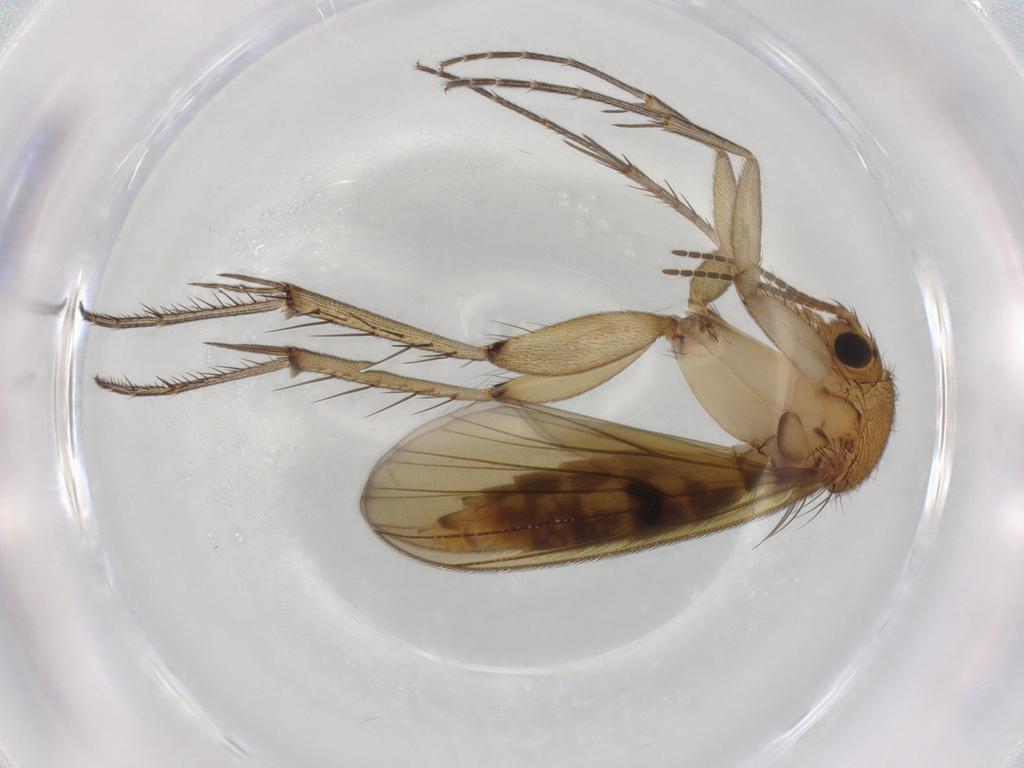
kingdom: Animalia
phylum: Arthropoda
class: Insecta
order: Diptera
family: Mycetophilidae
